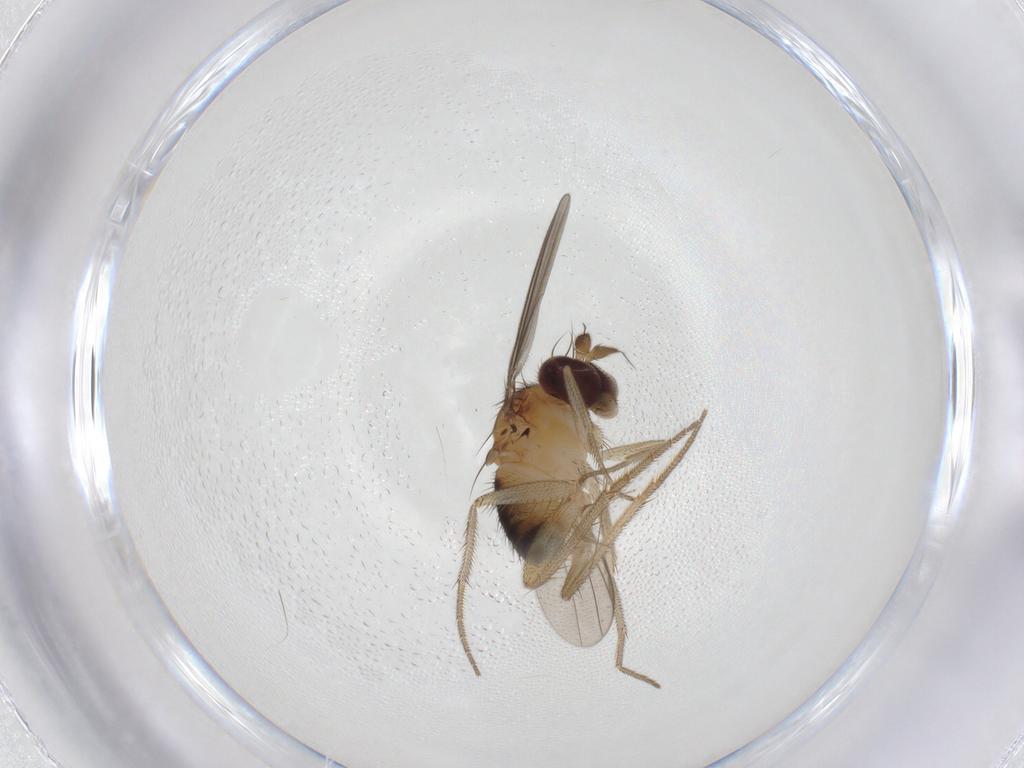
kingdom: Animalia
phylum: Arthropoda
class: Insecta
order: Diptera
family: Dolichopodidae
